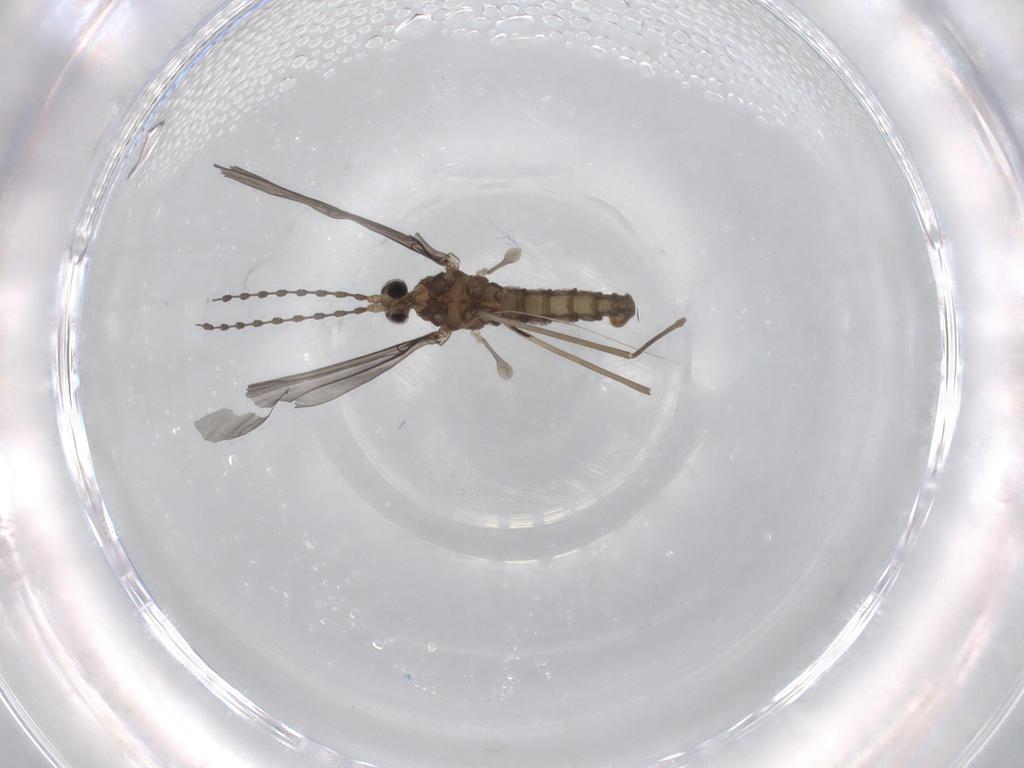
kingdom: Animalia
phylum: Arthropoda
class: Insecta
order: Diptera
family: Cecidomyiidae
